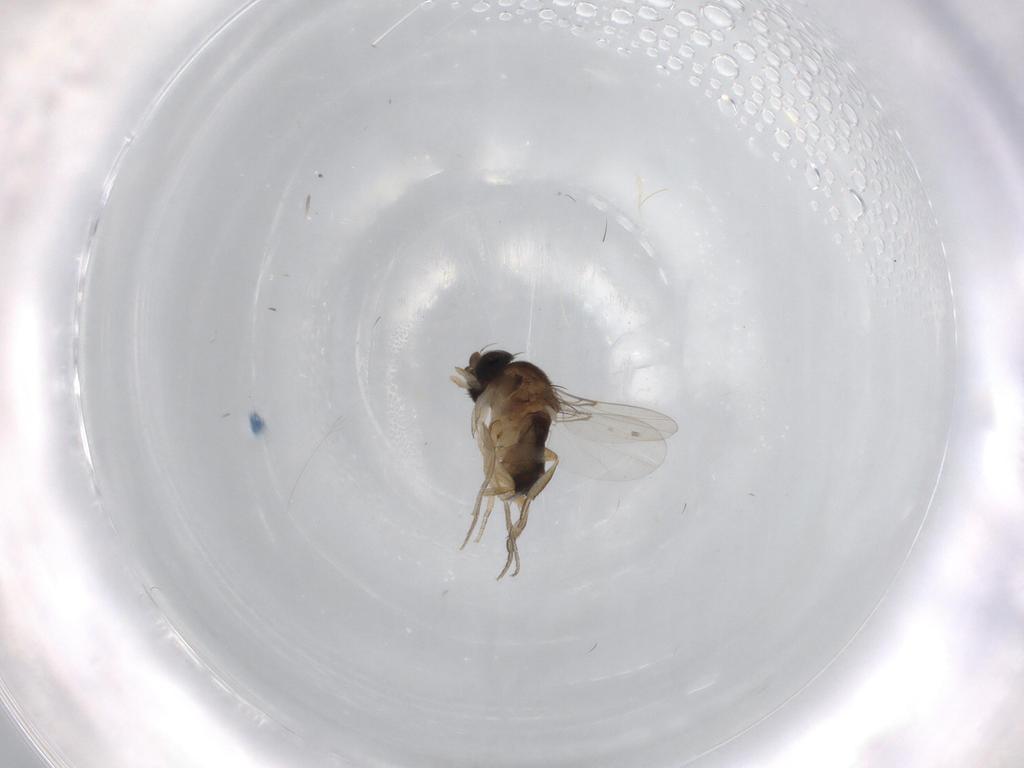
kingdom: Animalia
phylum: Arthropoda
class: Insecta
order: Diptera
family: Phoridae
